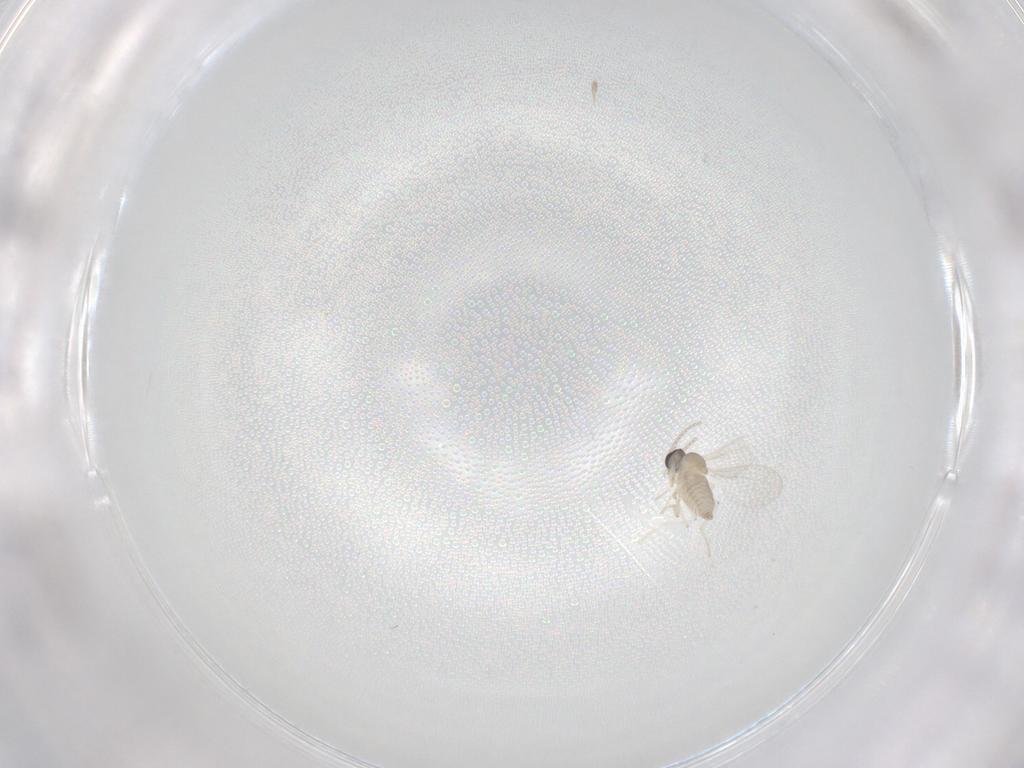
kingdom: Animalia
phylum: Arthropoda
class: Insecta
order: Diptera
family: Cecidomyiidae
